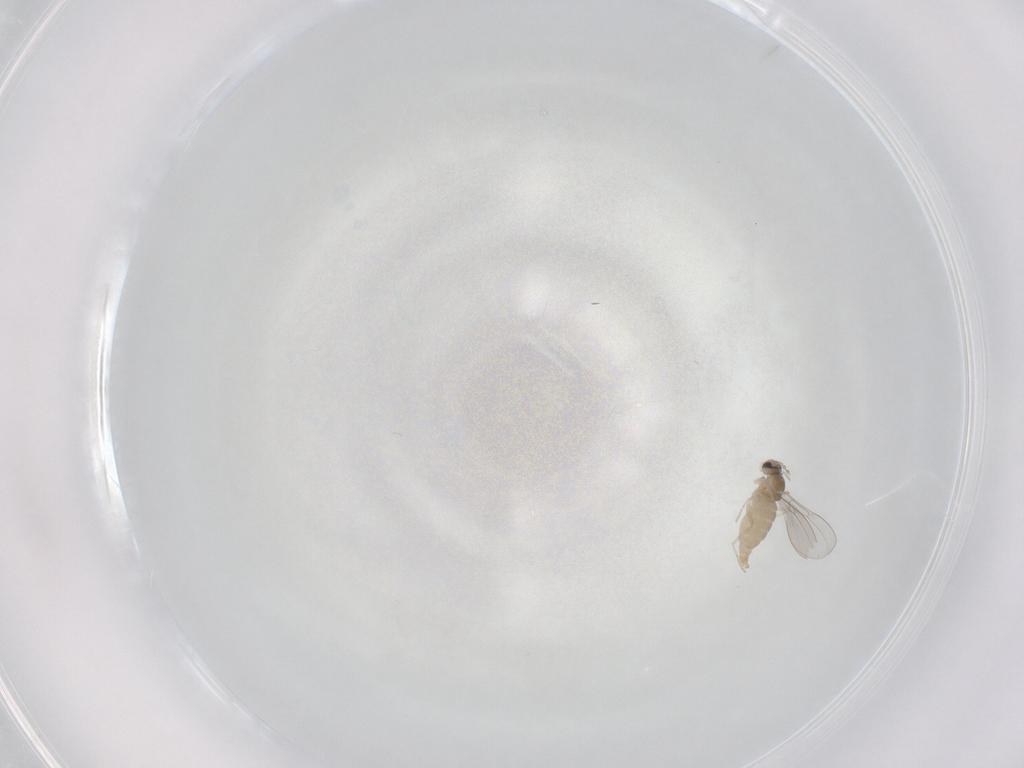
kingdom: Animalia
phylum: Arthropoda
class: Insecta
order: Diptera
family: Cecidomyiidae
